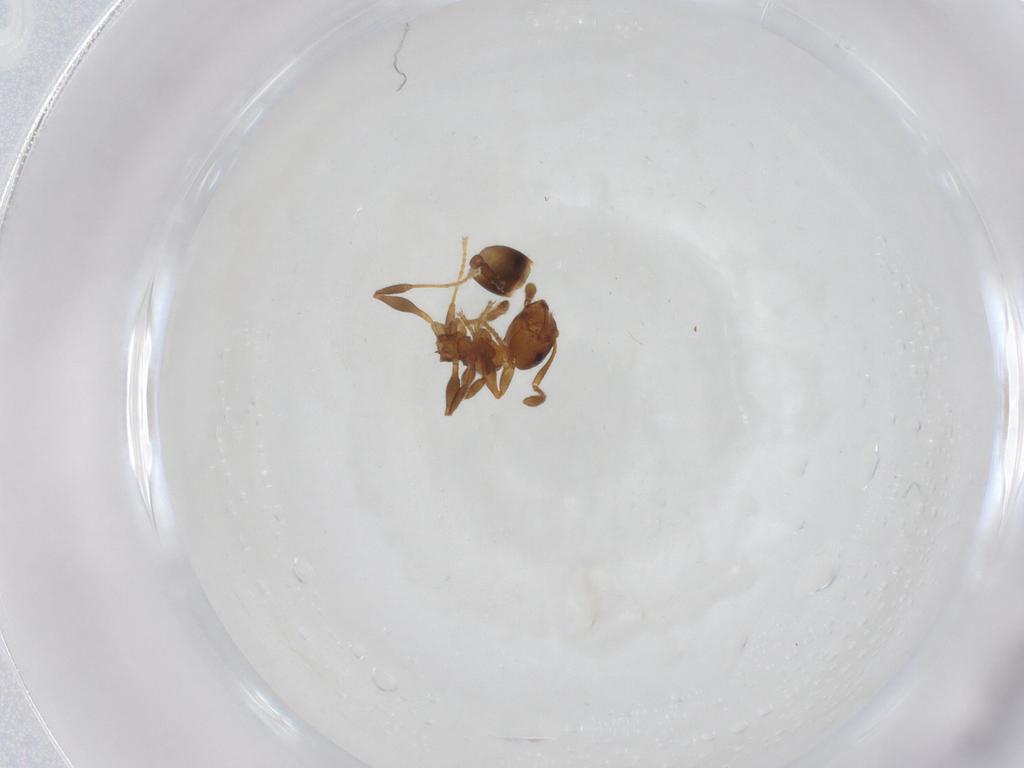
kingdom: Animalia
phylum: Arthropoda
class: Insecta
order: Hymenoptera
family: Formicidae
